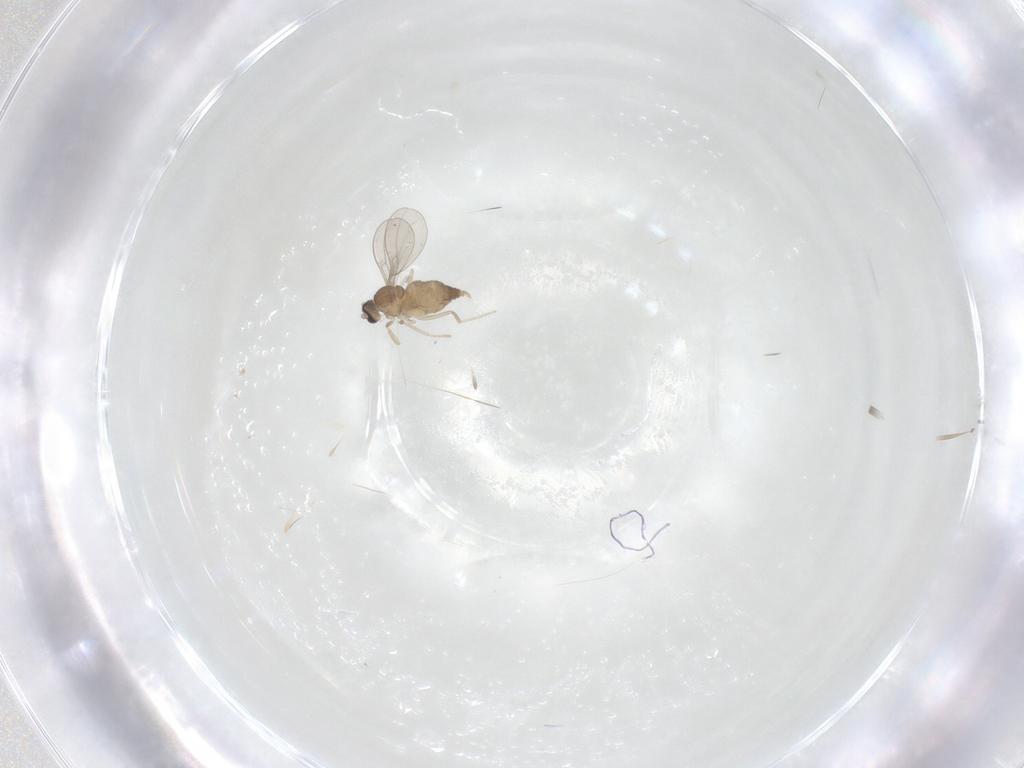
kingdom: Animalia
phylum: Arthropoda
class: Insecta
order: Diptera
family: Cecidomyiidae
